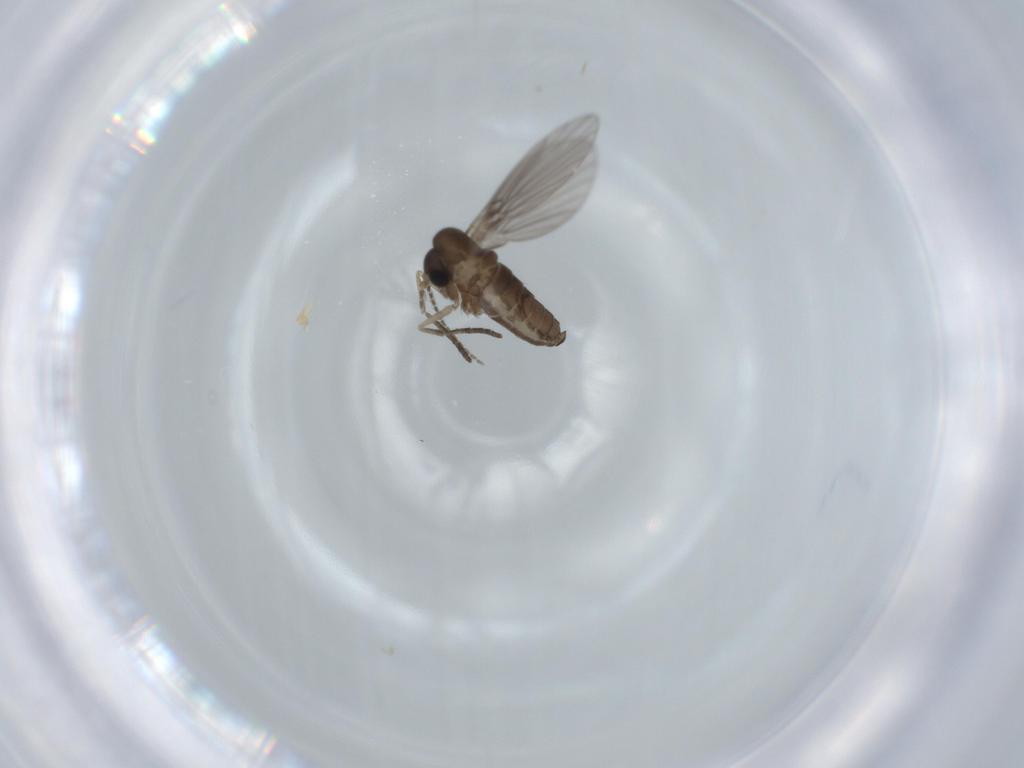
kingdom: Animalia
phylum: Arthropoda
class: Insecta
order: Diptera
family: Psychodidae
